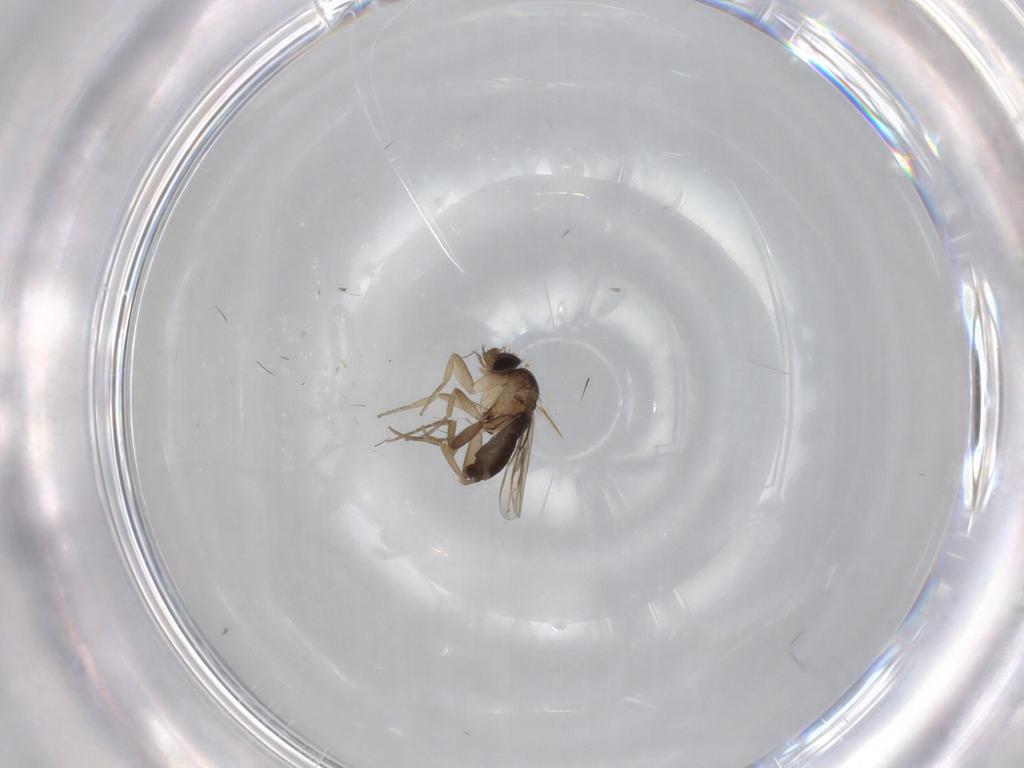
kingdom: Animalia
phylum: Arthropoda
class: Insecta
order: Diptera
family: Phoridae
